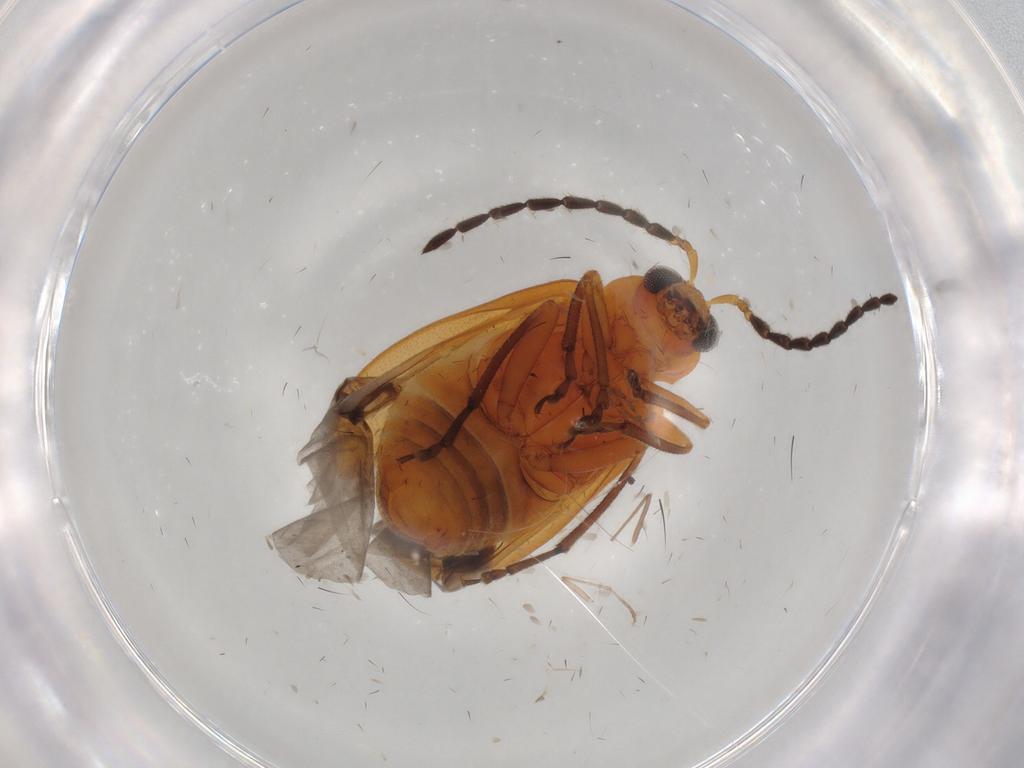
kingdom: Animalia
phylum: Arthropoda
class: Insecta
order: Coleoptera
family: Chrysomelidae
